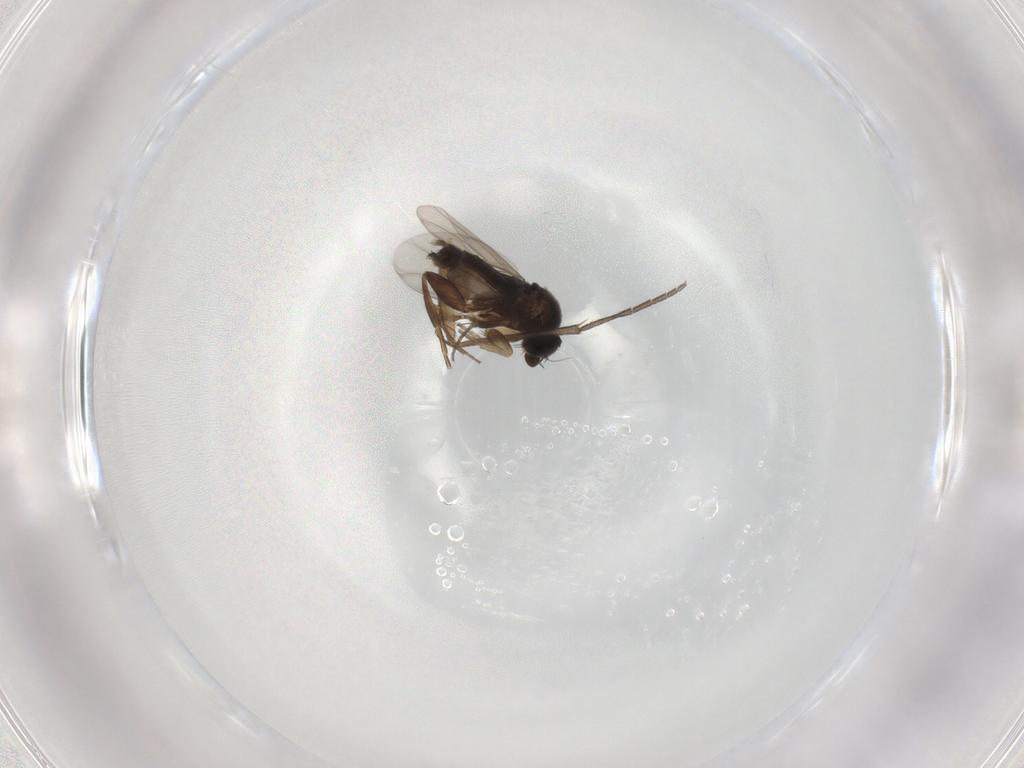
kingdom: Animalia
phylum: Arthropoda
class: Insecta
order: Diptera
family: Sciaridae
